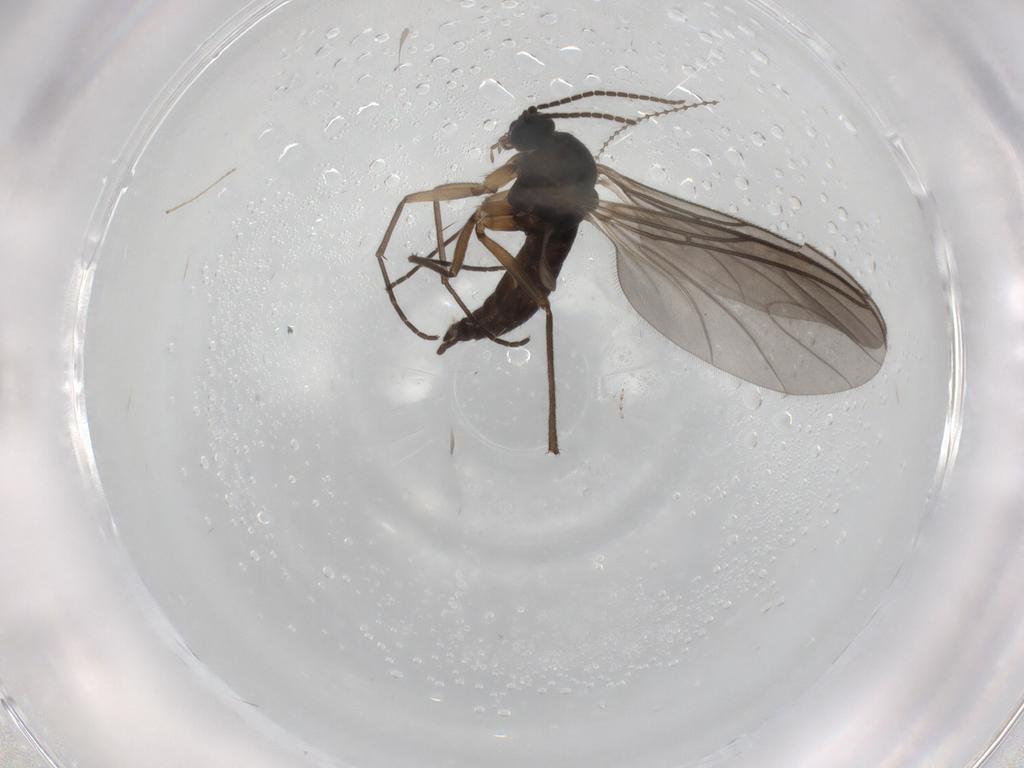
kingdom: Animalia
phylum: Arthropoda
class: Insecta
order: Diptera
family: Sciaridae
